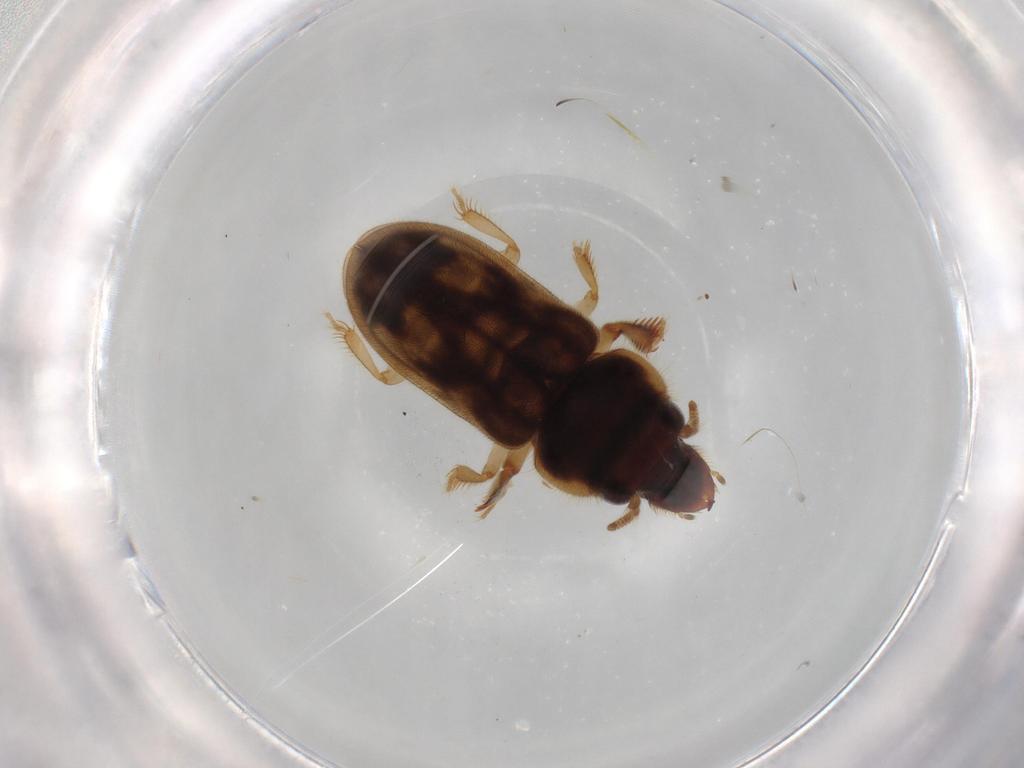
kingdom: Animalia
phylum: Arthropoda
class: Insecta
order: Coleoptera
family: Heteroceridae
